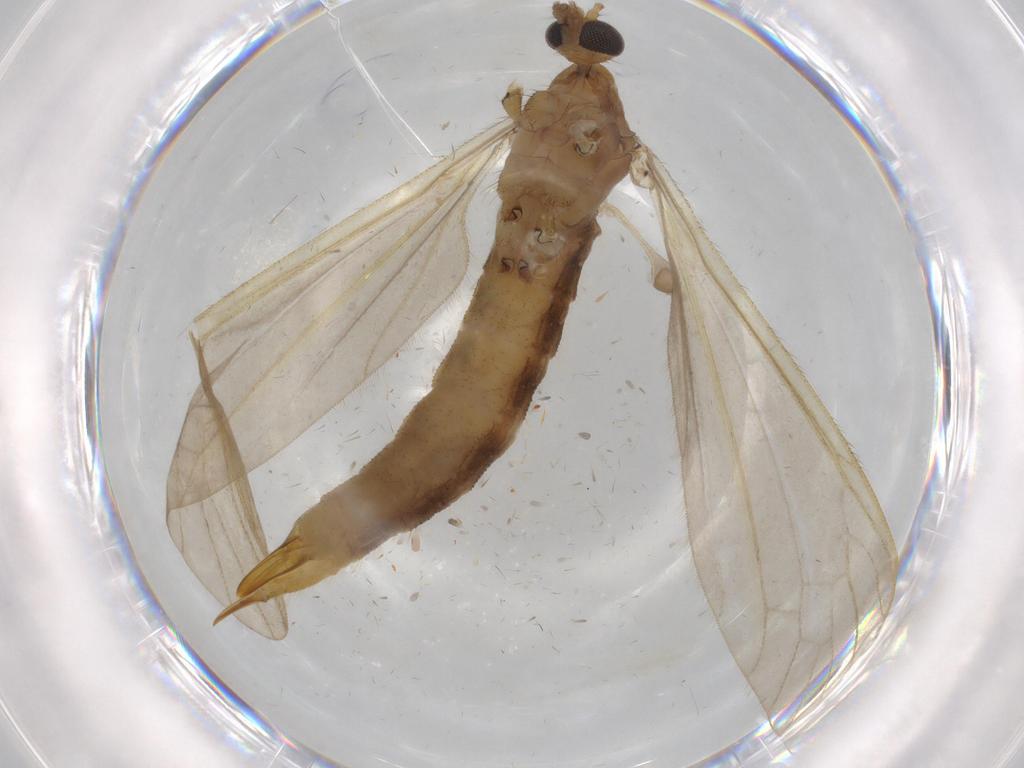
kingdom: Animalia
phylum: Arthropoda
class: Insecta
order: Diptera
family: Limoniidae
